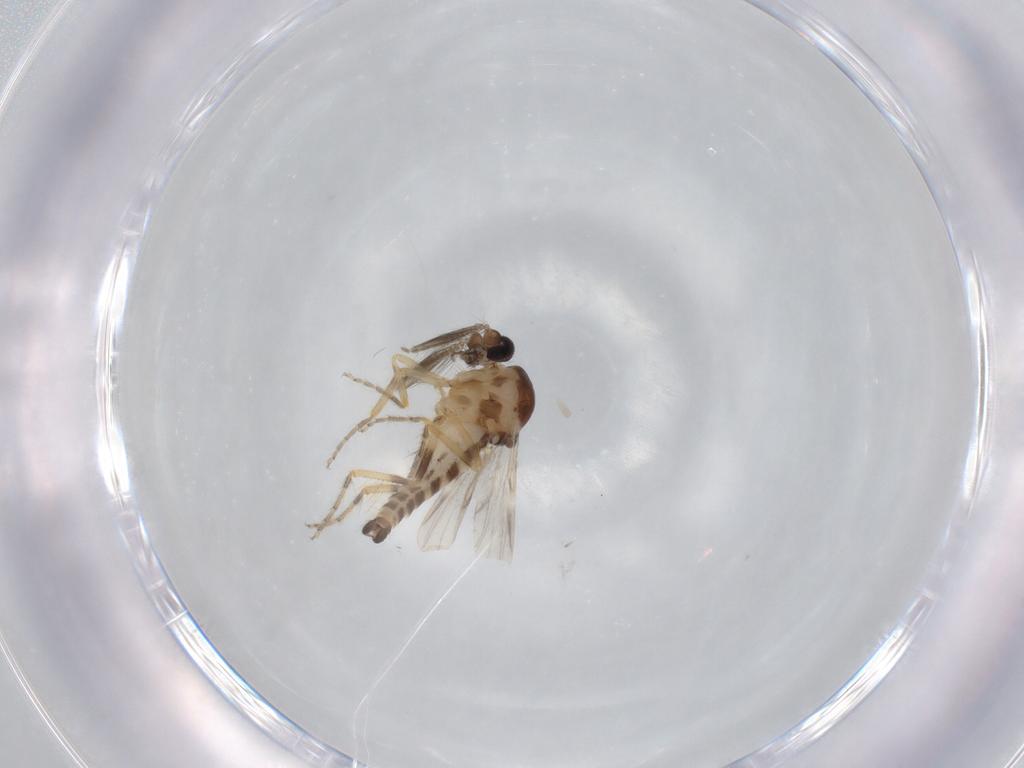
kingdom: Animalia
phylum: Arthropoda
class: Insecta
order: Diptera
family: Ceratopogonidae
